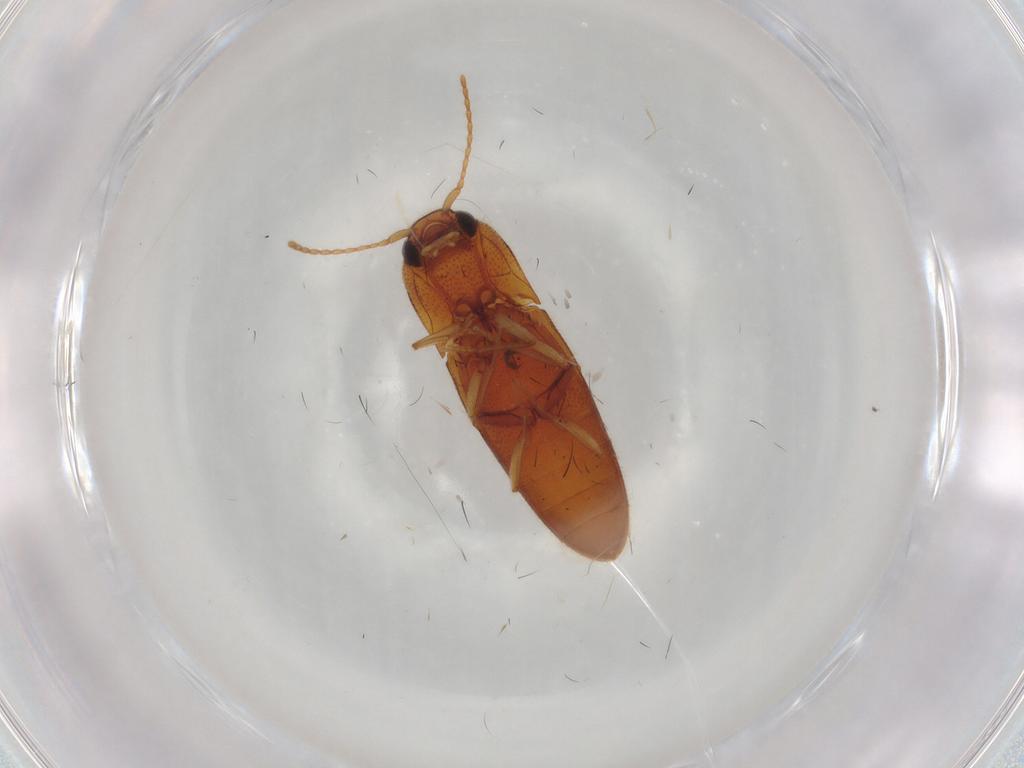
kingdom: Animalia
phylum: Arthropoda
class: Insecta
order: Coleoptera
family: Elateridae
